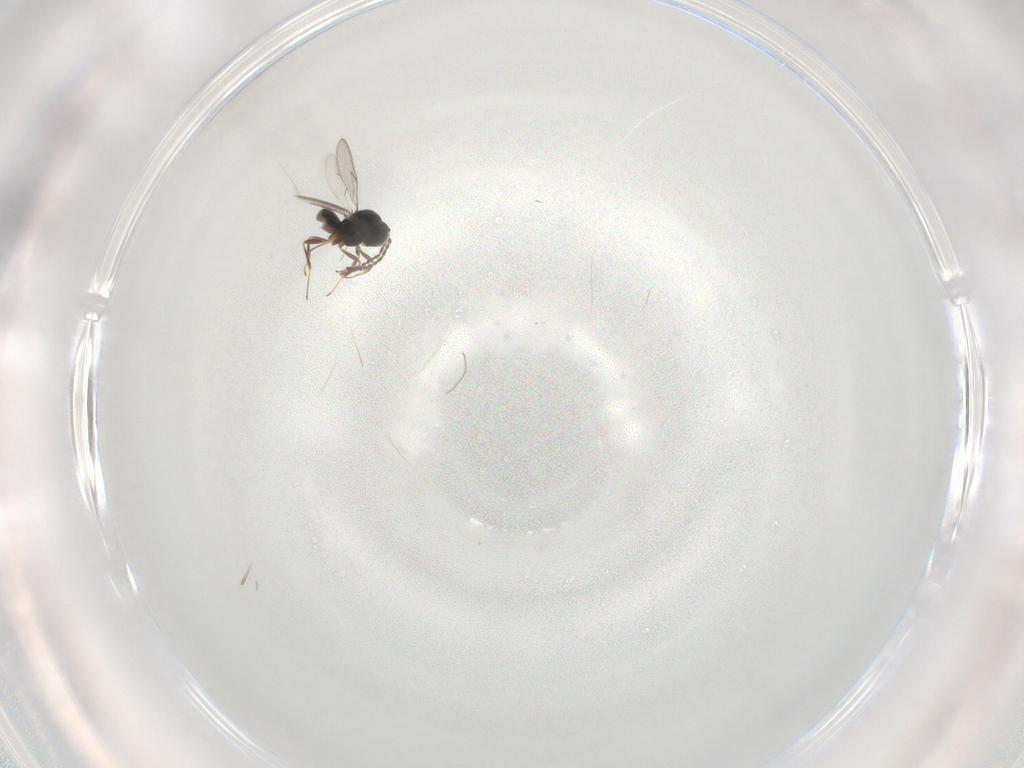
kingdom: Animalia
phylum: Arthropoda
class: Insecta
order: Hymenoptera
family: Scelionidae
